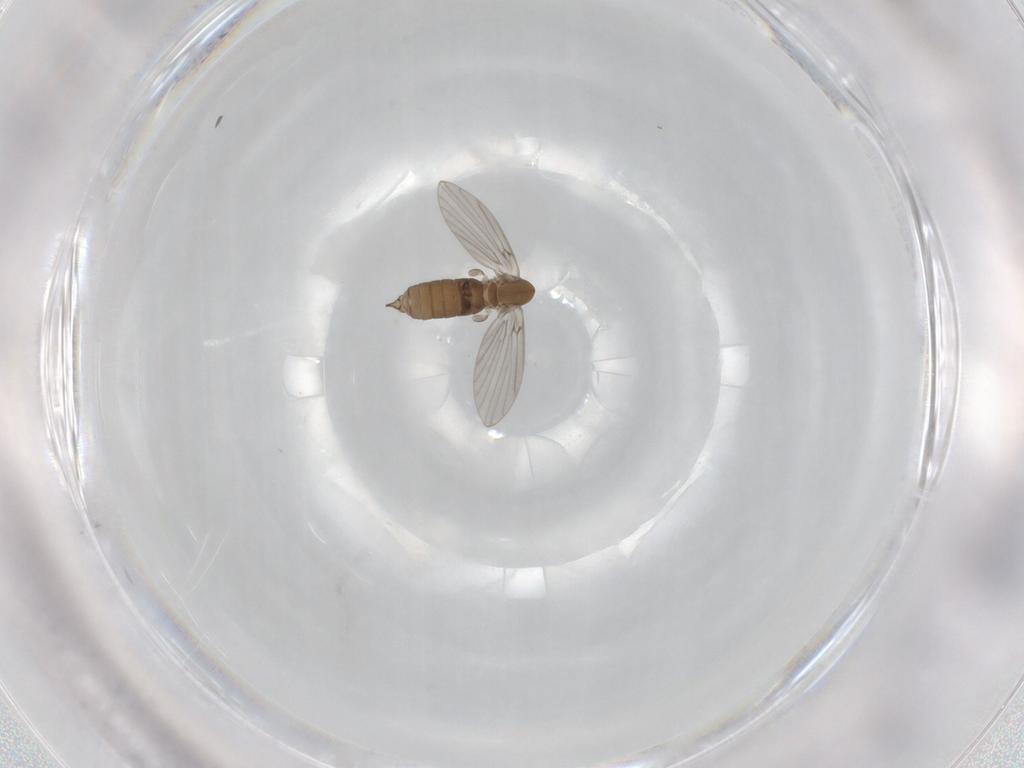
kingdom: Animalia
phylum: Arthropoda
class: Insecta
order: Diptera
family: Cecidomyiidae
